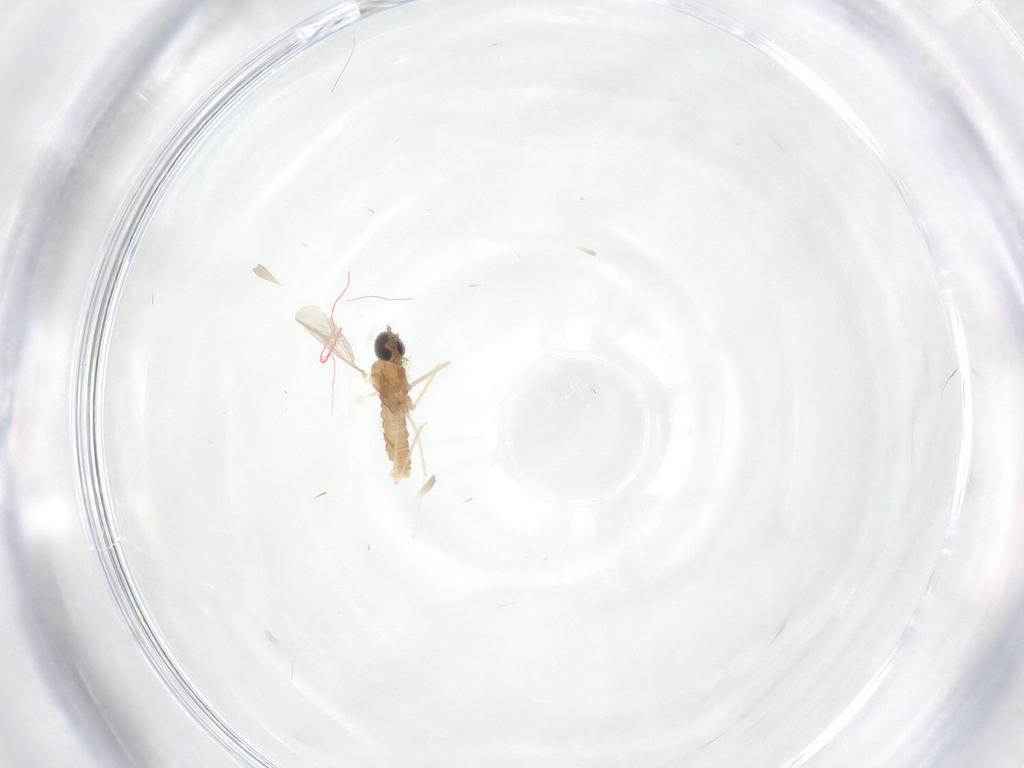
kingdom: Animalia
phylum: Arthropoda
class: Insecta
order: Diptera
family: Cecidomyiidae
